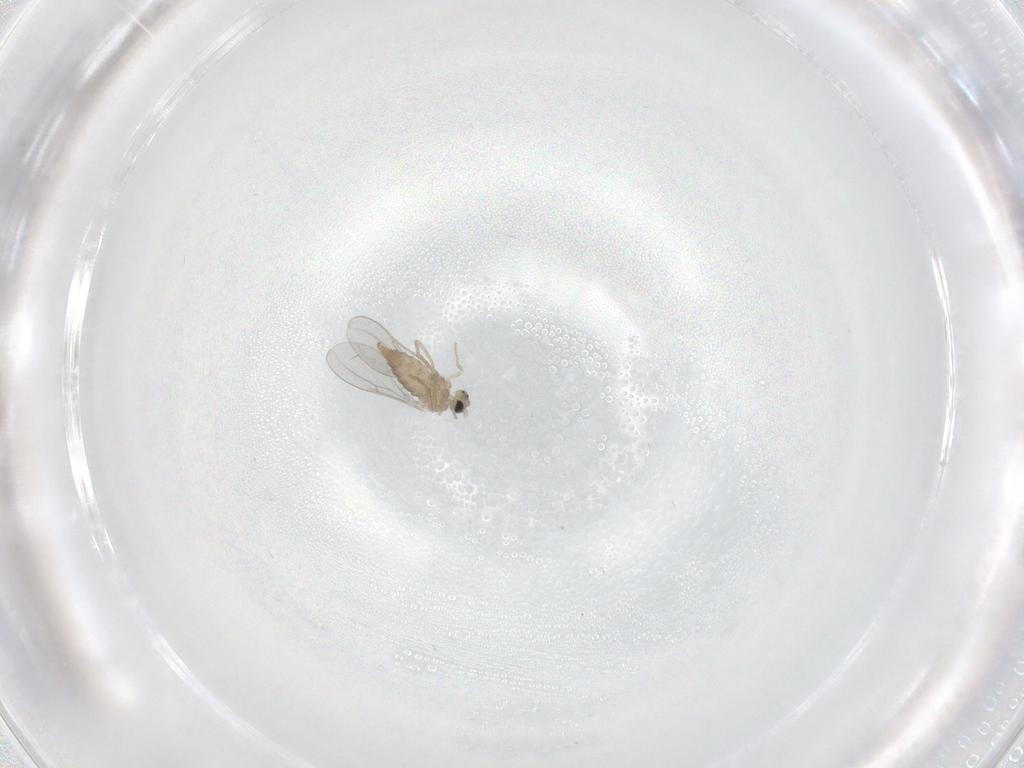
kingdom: Animalia
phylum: Arthropoda
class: Insecta
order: Diptera
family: Cecidomyiidae
